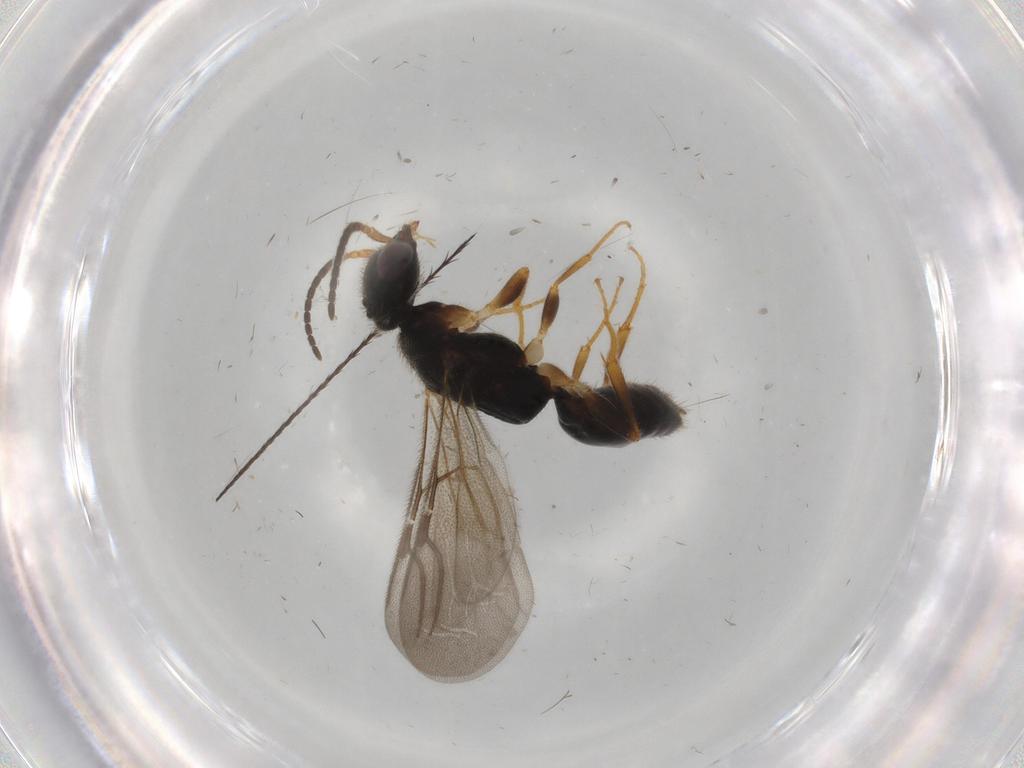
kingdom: Animalia
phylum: Arthropoda
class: Insecta
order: Hymenoptera
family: Bethylidae
